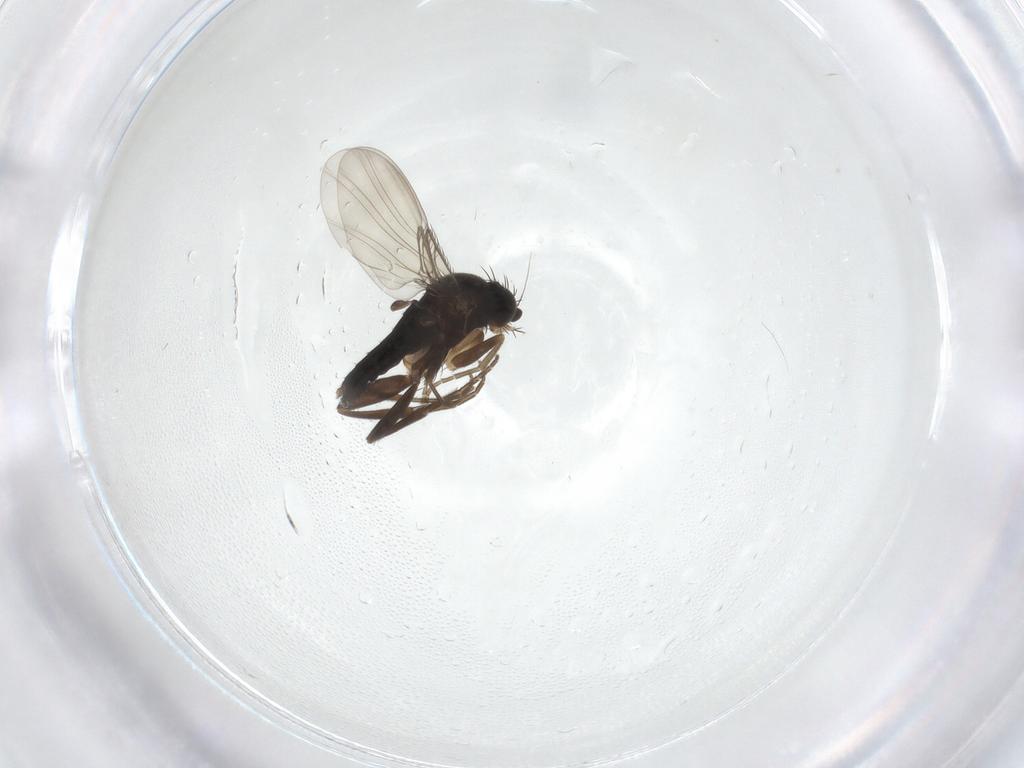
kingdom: Animalia
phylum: Arthropoda
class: Insecta
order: Diptera
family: Phoridae
